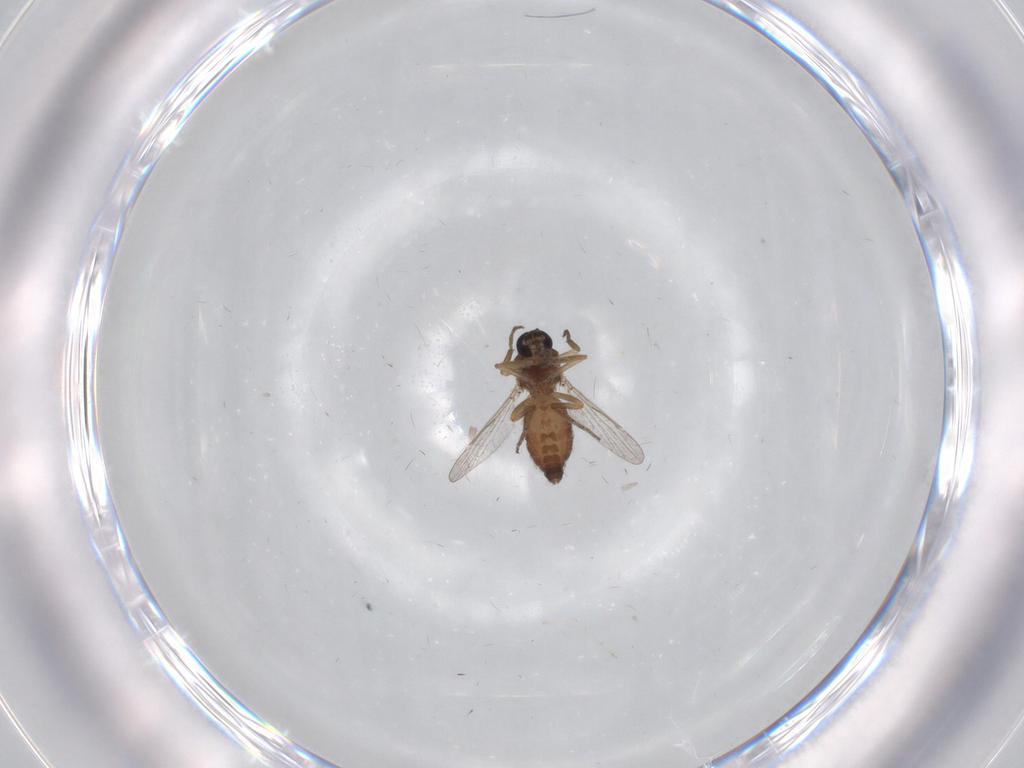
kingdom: Animalia
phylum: Arthropoda
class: Insecta
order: Diptera
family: Cecidomyiidae
